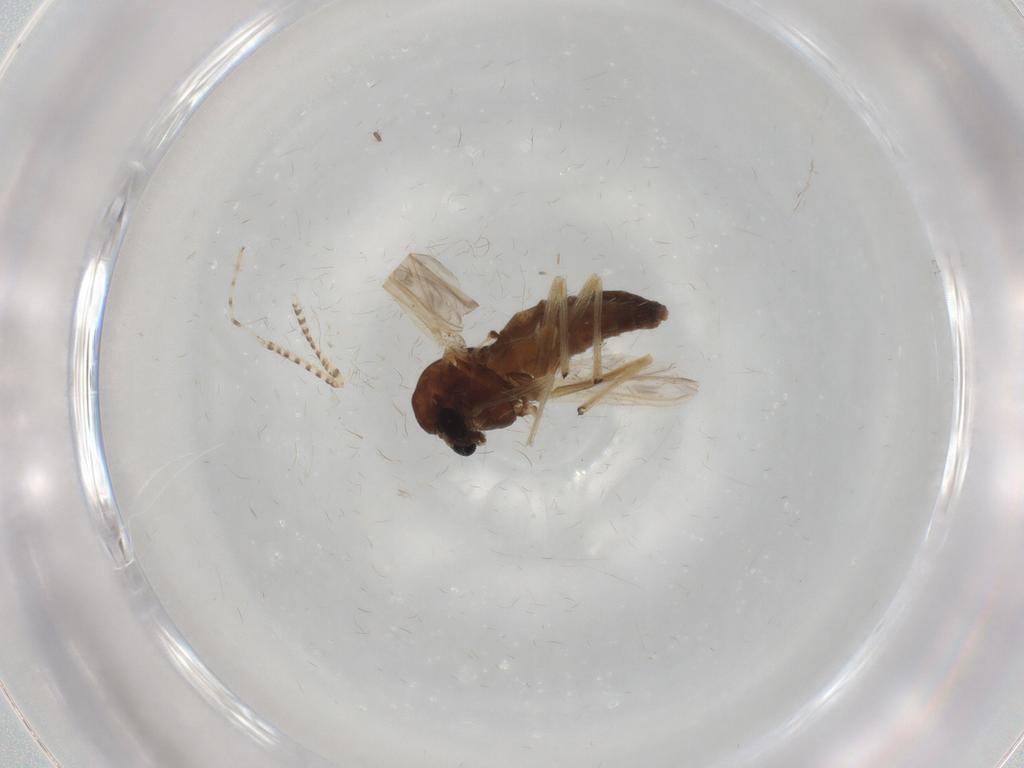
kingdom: Animalia
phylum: Arthropoda
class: Insecta
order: Diptera
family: Chironomidae
